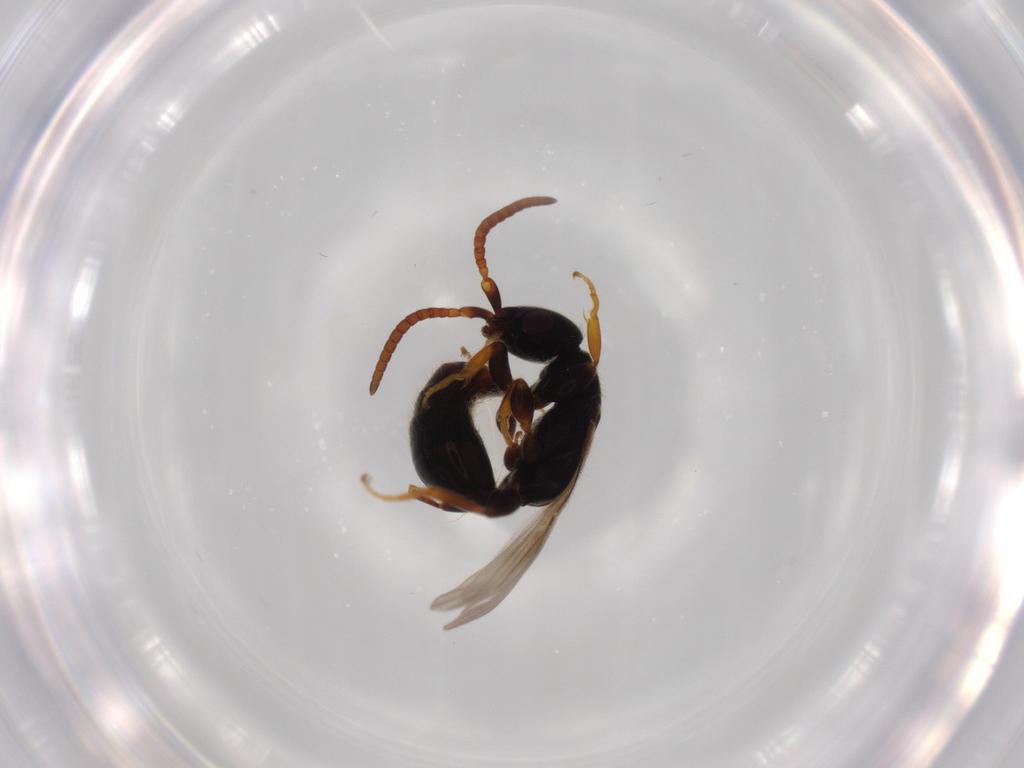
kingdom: Animalia
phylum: Arthropoda
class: Insecta
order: Hymenoptera
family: Bethylidae
